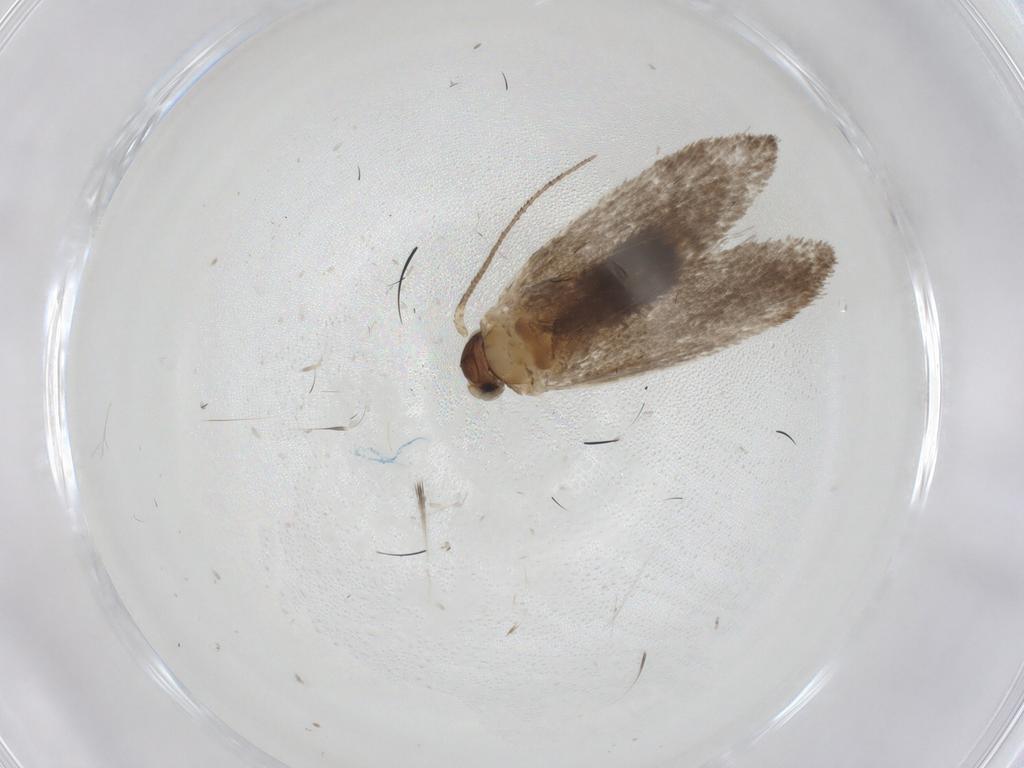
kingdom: Animalia
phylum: Arthropoda
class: Insecta
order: Lepidoptera
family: Dryadaulidae
